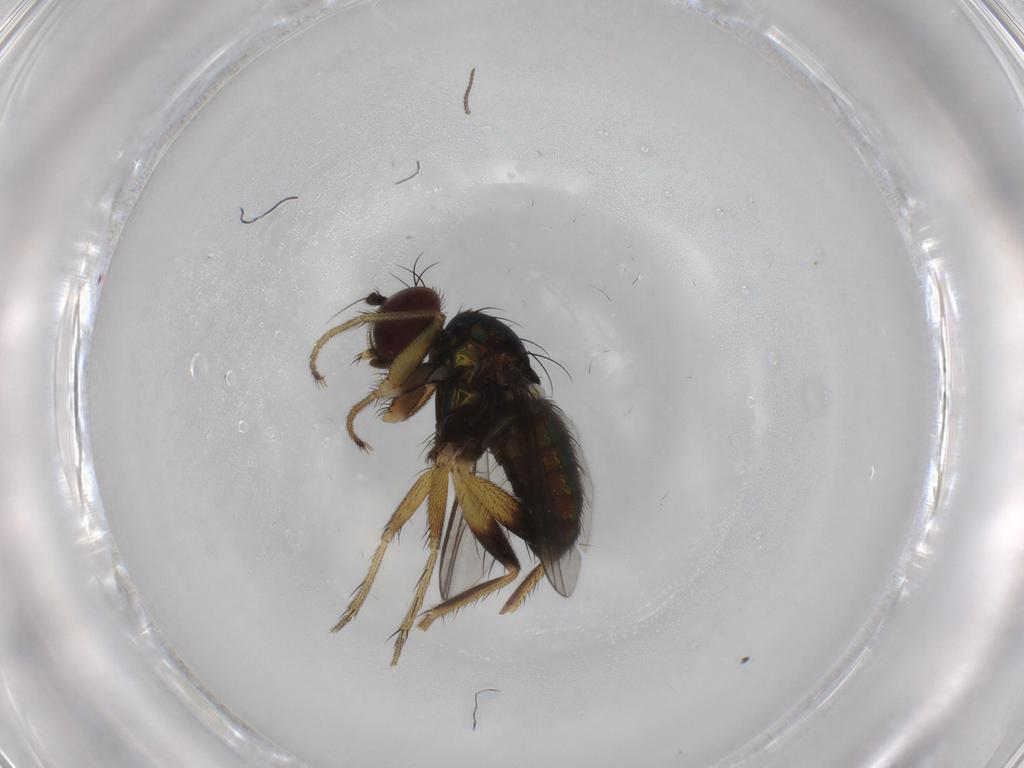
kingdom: Animalia
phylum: Arthropoda
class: Insecta
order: Diptera
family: Dolichopodidae
